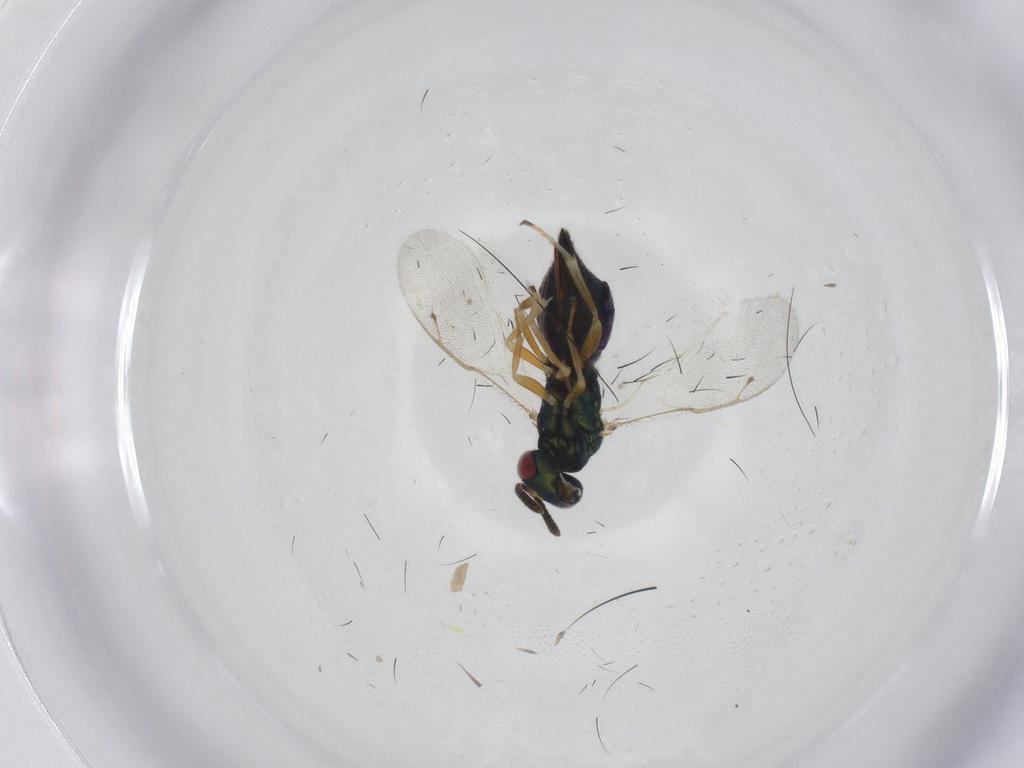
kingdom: Animalia
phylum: Arthropoda
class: Insecta
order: Hymenoptera
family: Pteromalidae
